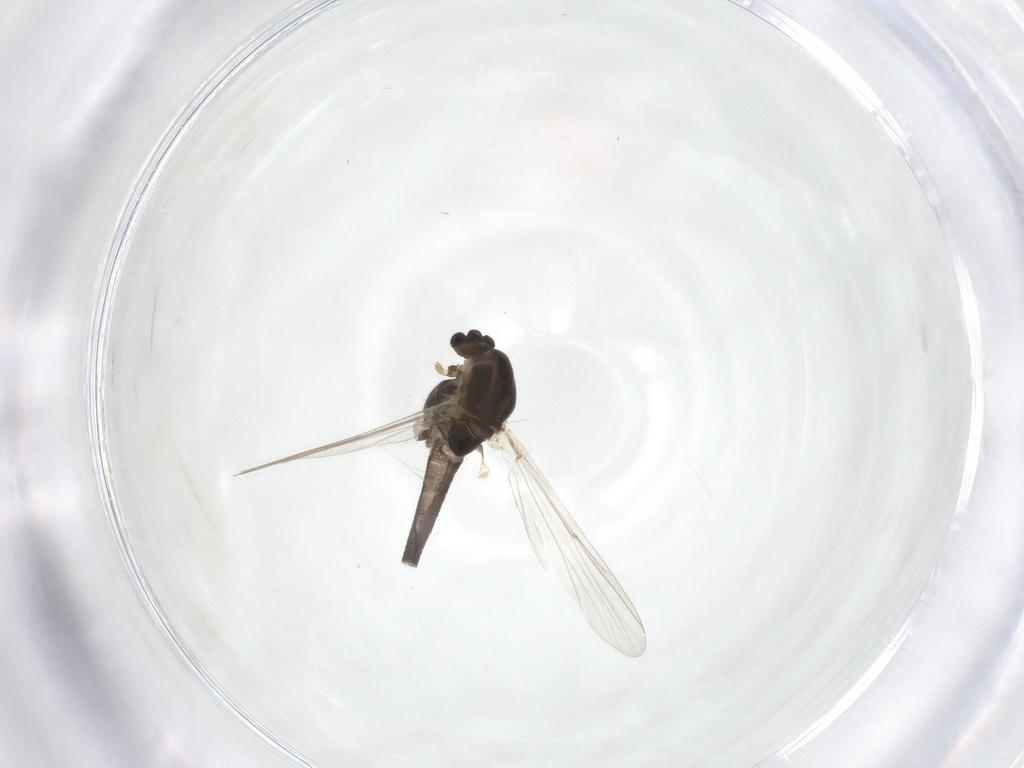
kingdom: Animalia
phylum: Arthropoda
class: Insecta
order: Diptera
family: Chironomidae
